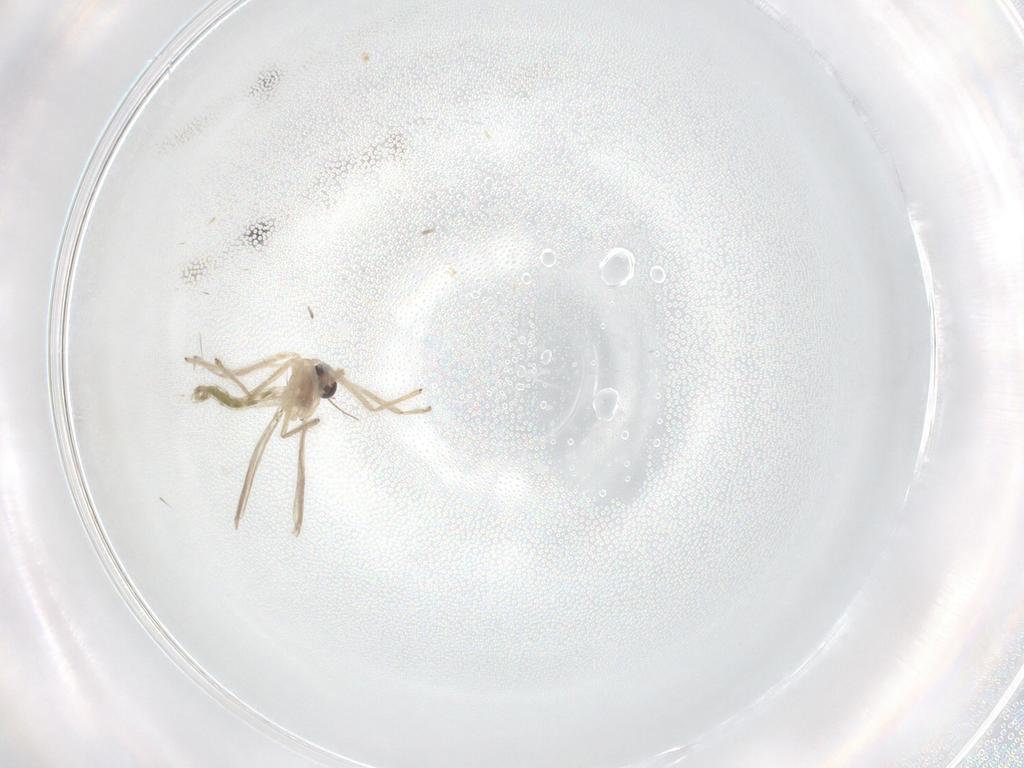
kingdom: Animalia
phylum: Arthropoda
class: Insecta
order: Diptera
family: Chironomidae
